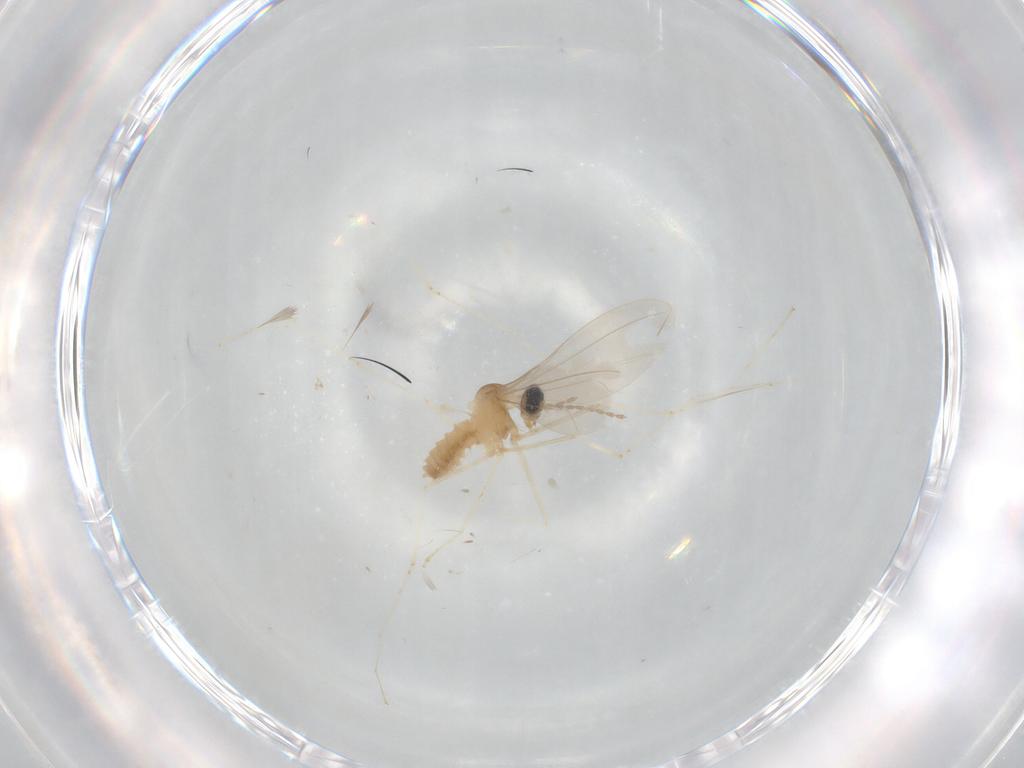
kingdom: Animalia
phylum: Arthropoda
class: Insecta
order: Diptera
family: Cecidomyiidae
